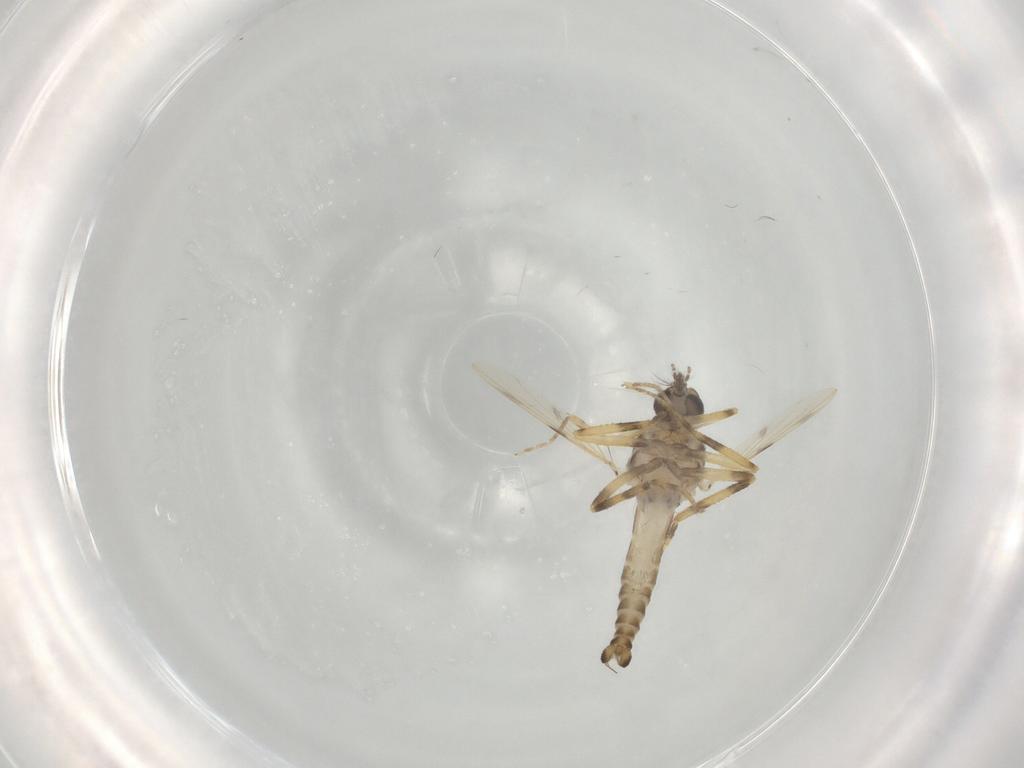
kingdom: Animalia
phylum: Arthropoda
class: Insecta
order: Diptera
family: Ceratopogonidae
